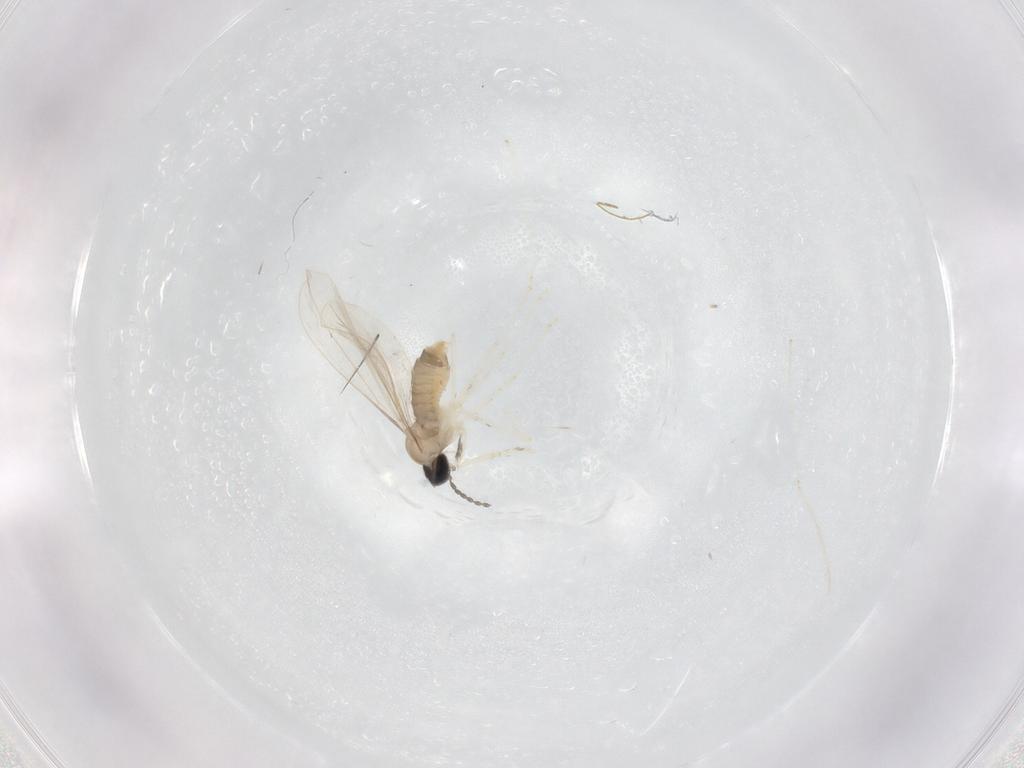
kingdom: Animalia
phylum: Arthropoda
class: Insecta
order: Diptera
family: Cecidomyiidae
